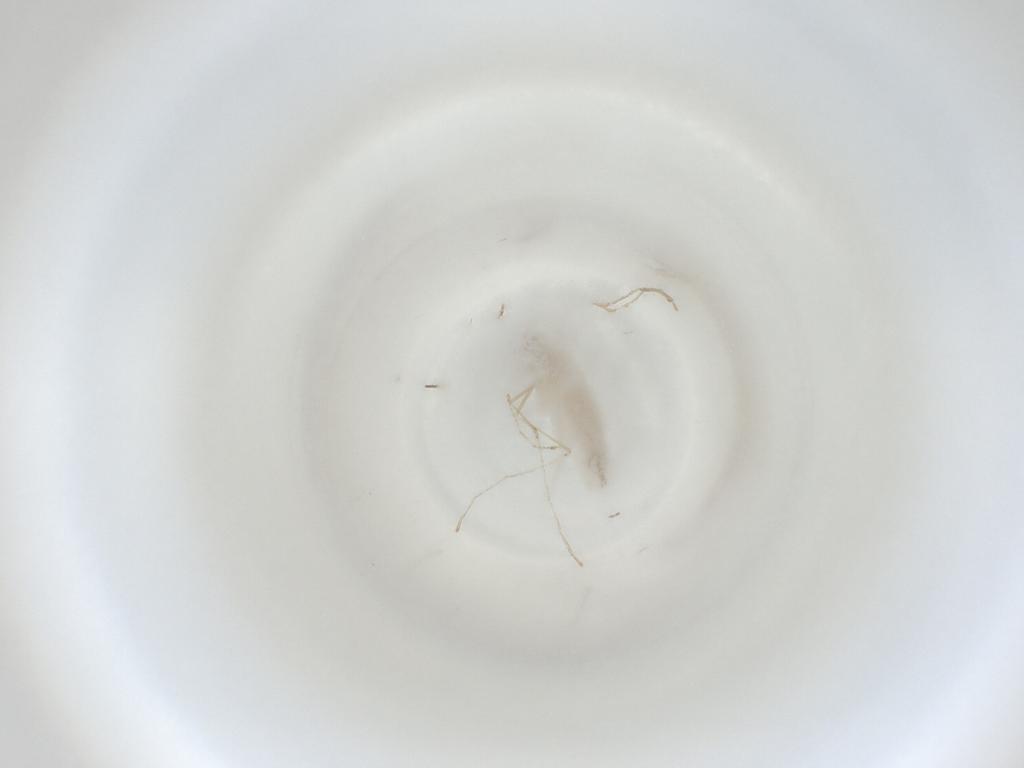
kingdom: Animalia
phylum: Arthropoda
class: Insecta
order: Diptera
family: Cecidomyiidae
